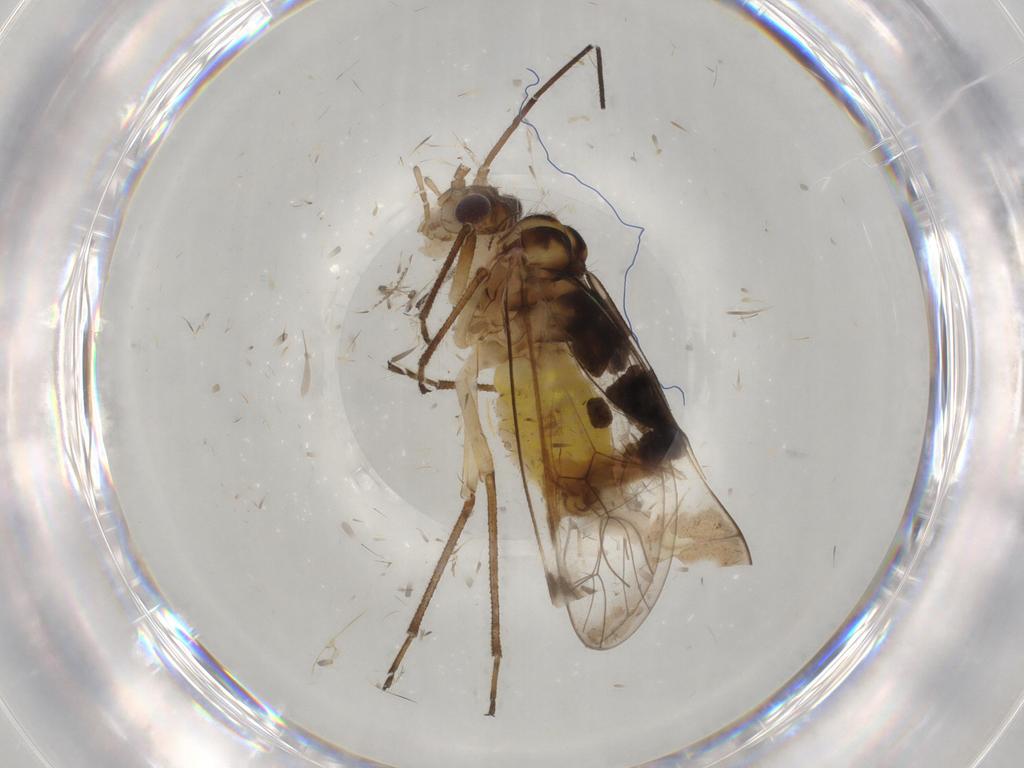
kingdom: Animalia
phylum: Arthropoda
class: Insecta
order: Psocodea
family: Amphipsocidae
